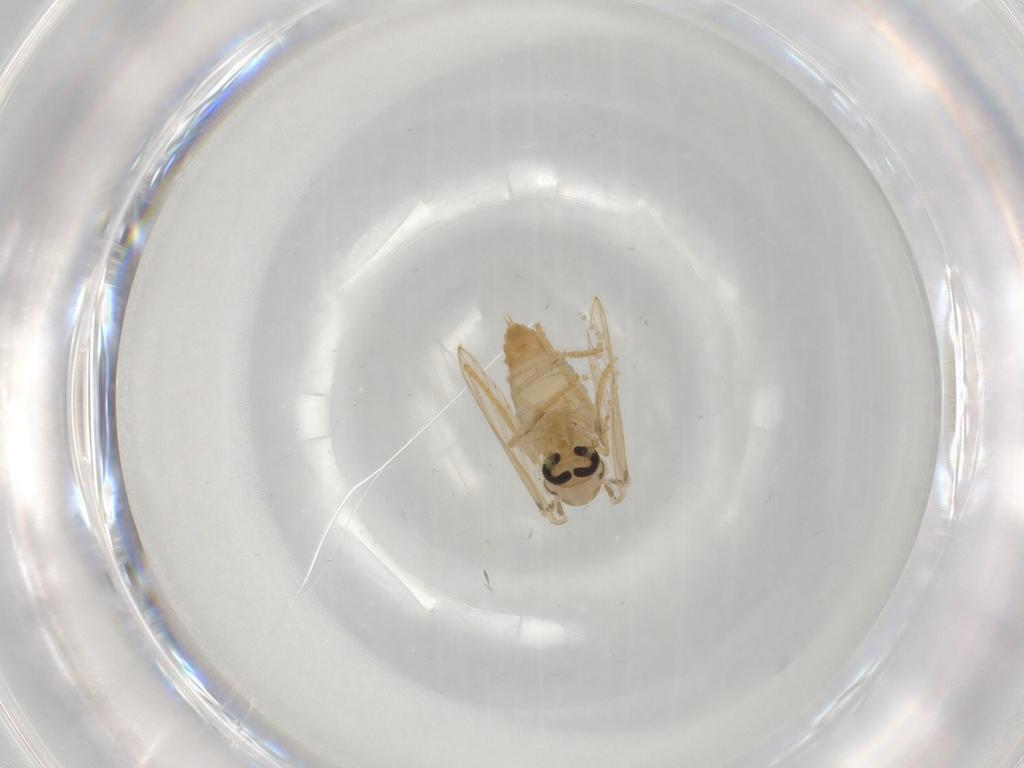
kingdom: Animalia
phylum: Arthropoda
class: Insecta
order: Diptera
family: Psychodidae
